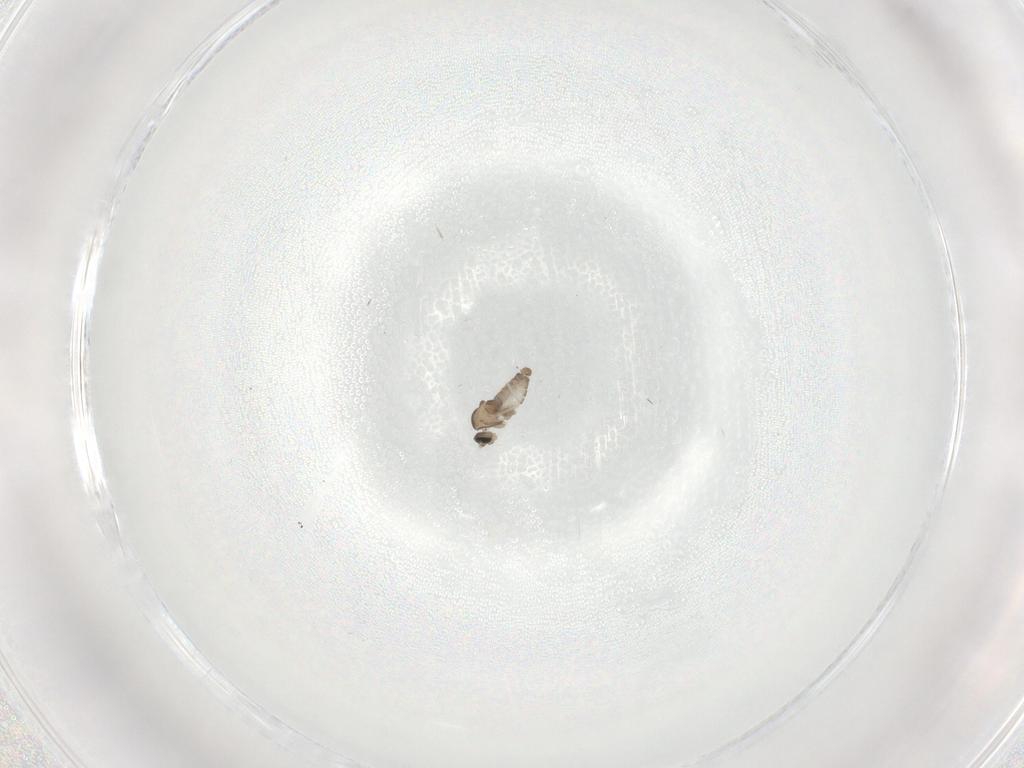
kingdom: Animalia
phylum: Arthropoda
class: Insecta
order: Diptera
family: Cecidomyiidae
